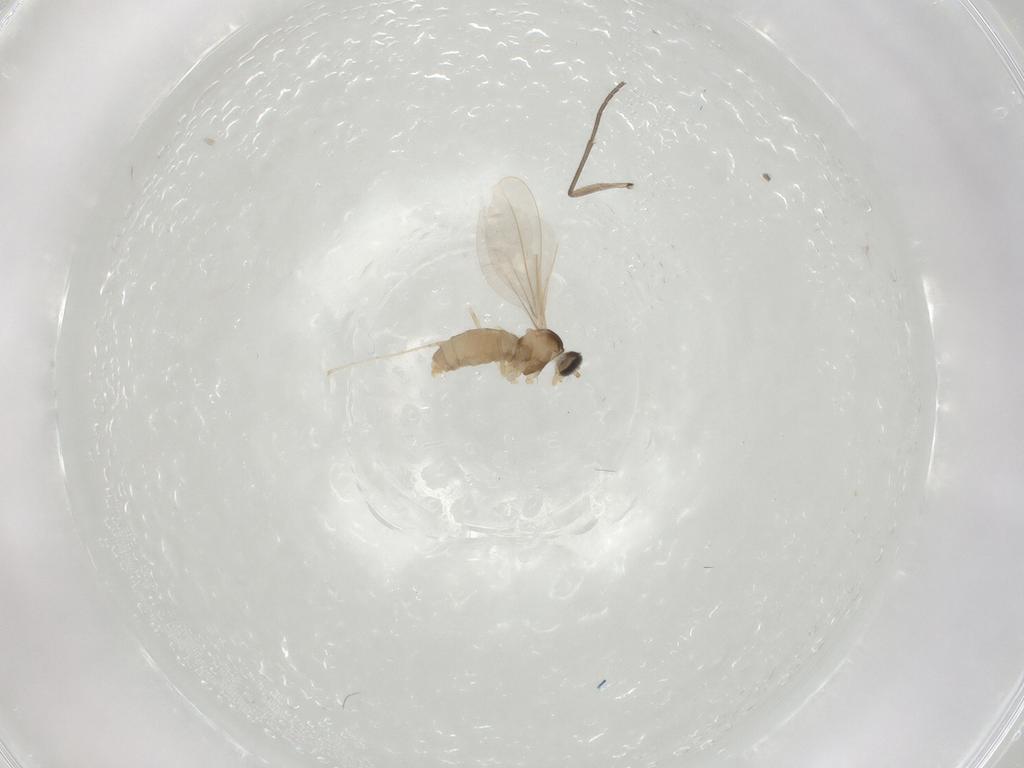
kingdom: Animalia
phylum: Arthropoda
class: Insecta
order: Diptera
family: Cecidomyiidae
